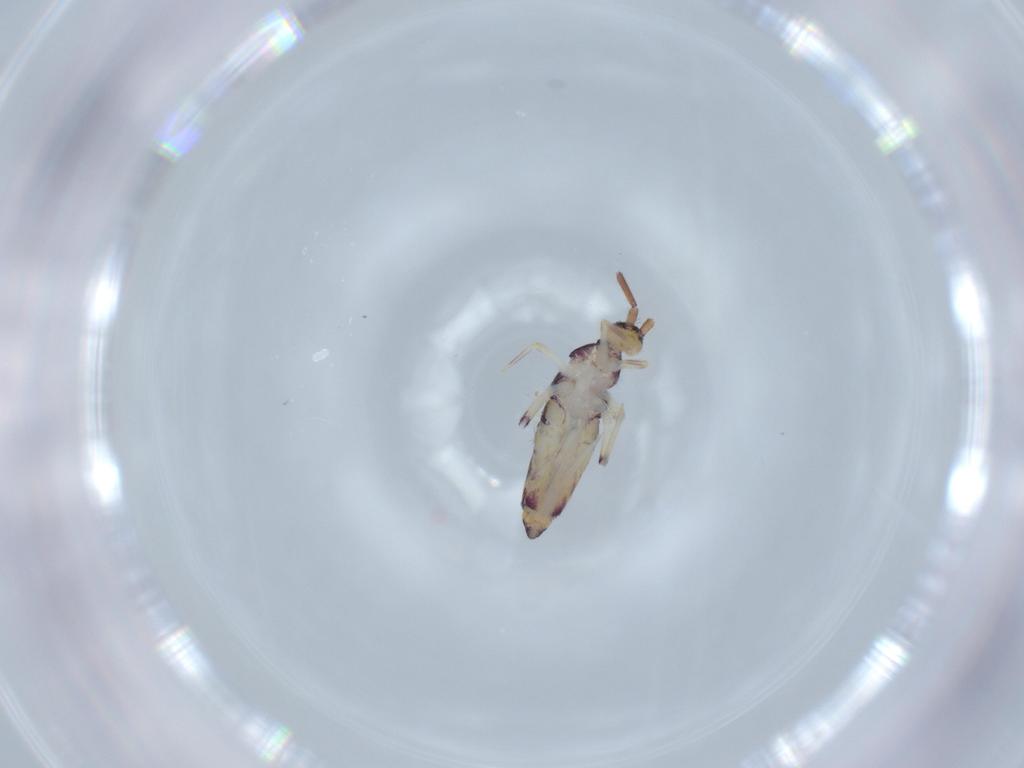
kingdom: Animalia
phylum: Arthropoda
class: Collembola
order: Entomobryomorpha
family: Entomobryidae
